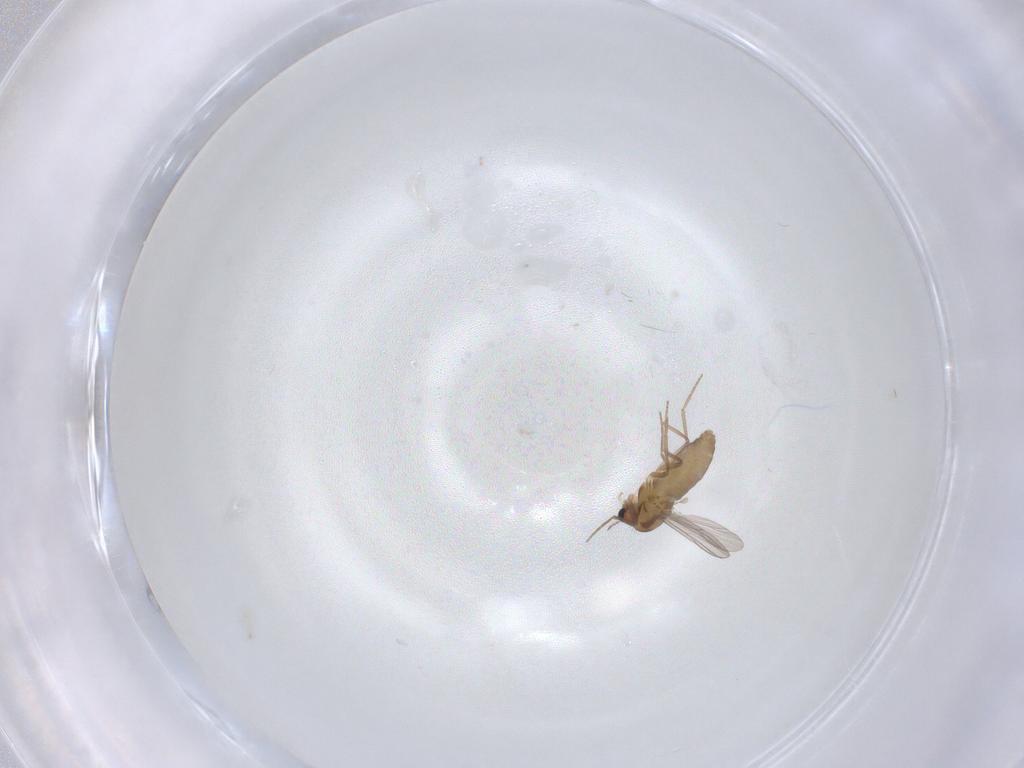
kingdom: Animalia
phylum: Arthropoda
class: Insecta
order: Diptera
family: Chironomidae
